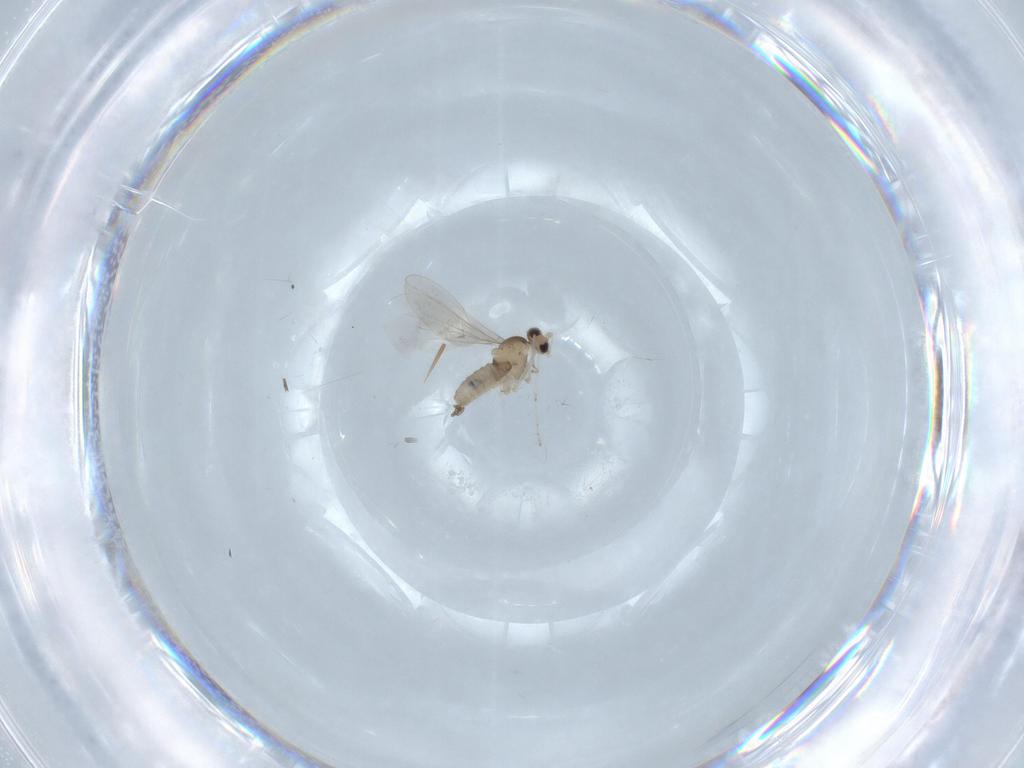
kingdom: Animalia
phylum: Arthropoda
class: Insecta
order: Diptera
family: Cecidomyiidae
